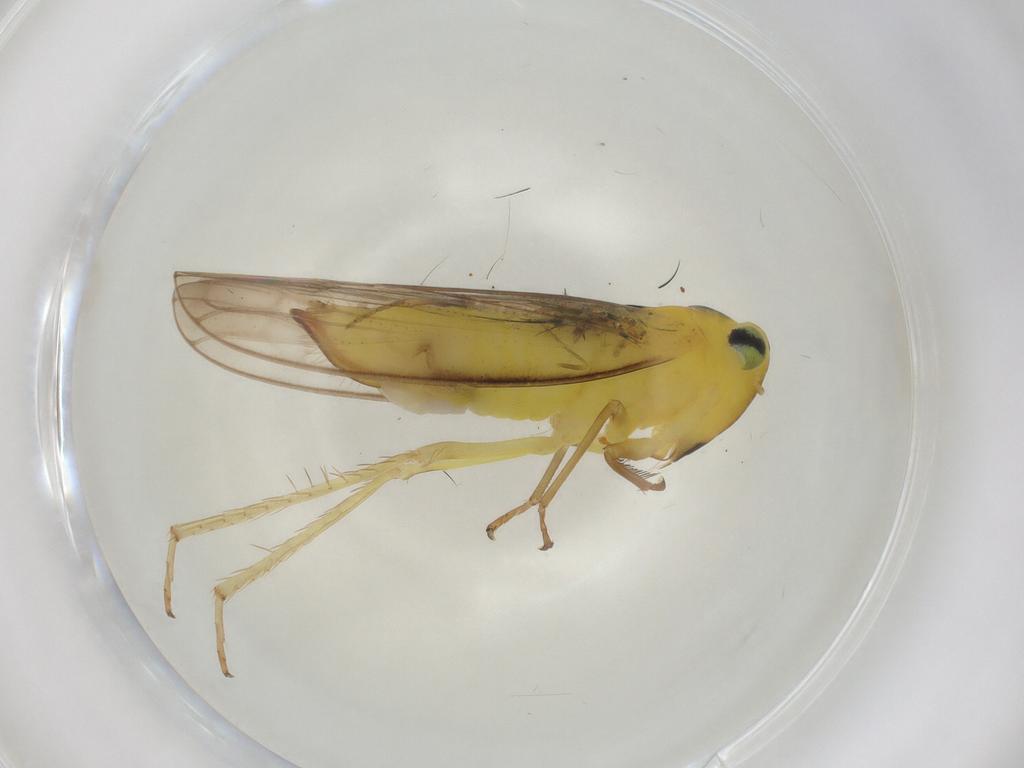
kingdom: Animalia
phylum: Arthropoda
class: Insecta
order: Hemiptera
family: Cicadellidae
